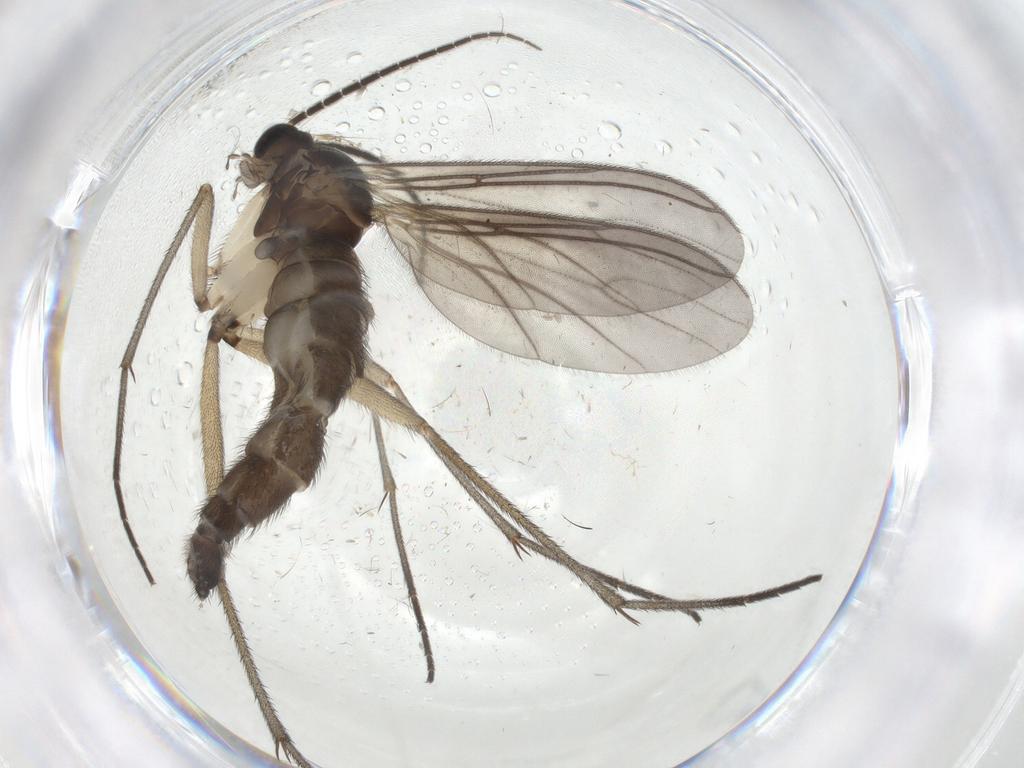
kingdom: Animalia
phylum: Arthropoda
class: Insecta
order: Diptera
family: Sciaridae
